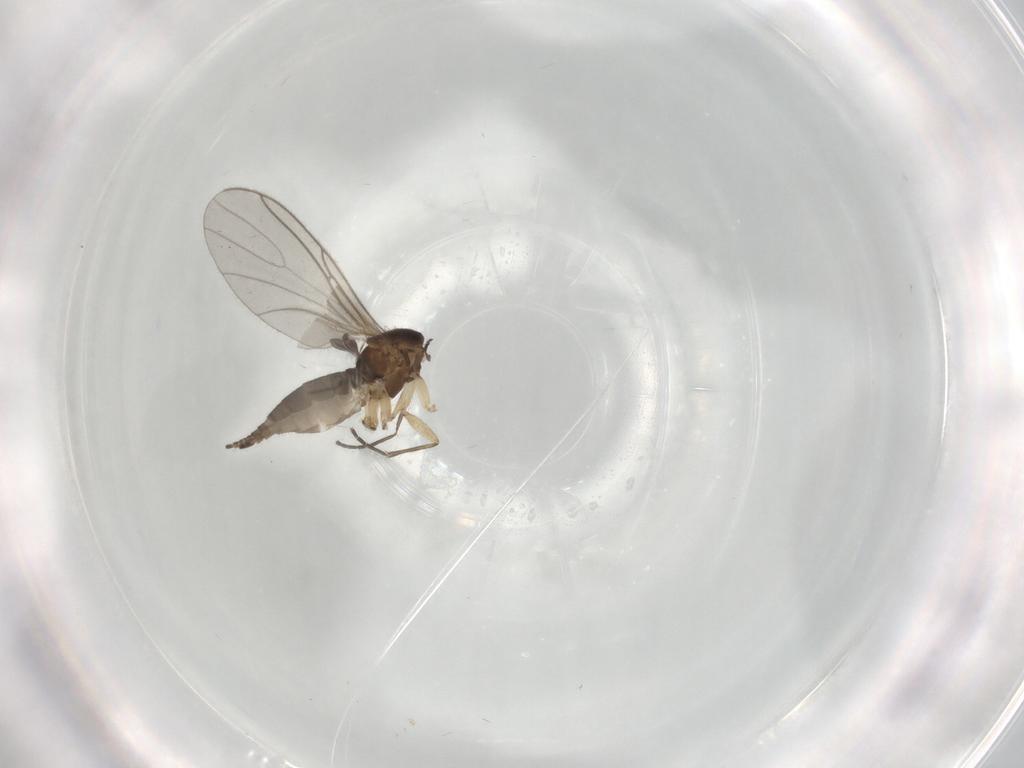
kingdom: Animalia
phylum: Arthropoda
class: Insecta
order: Diptera
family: Sciaridae
